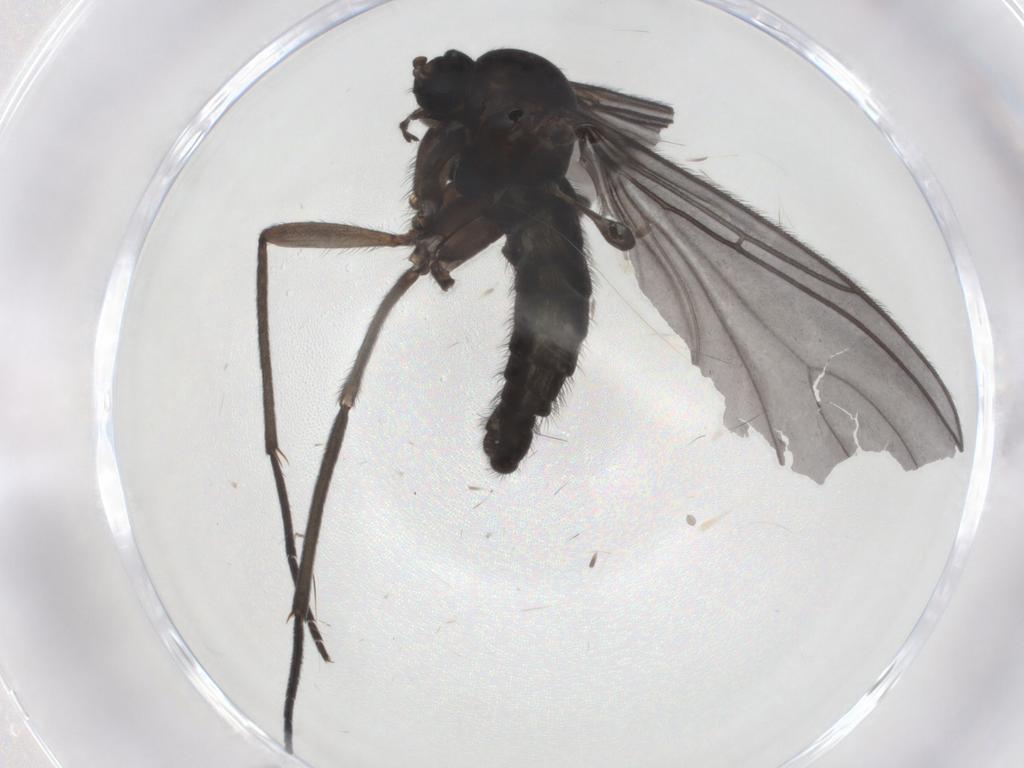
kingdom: Animalia
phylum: Arthropoda
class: Insecta
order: Diptera
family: Sciaridae
